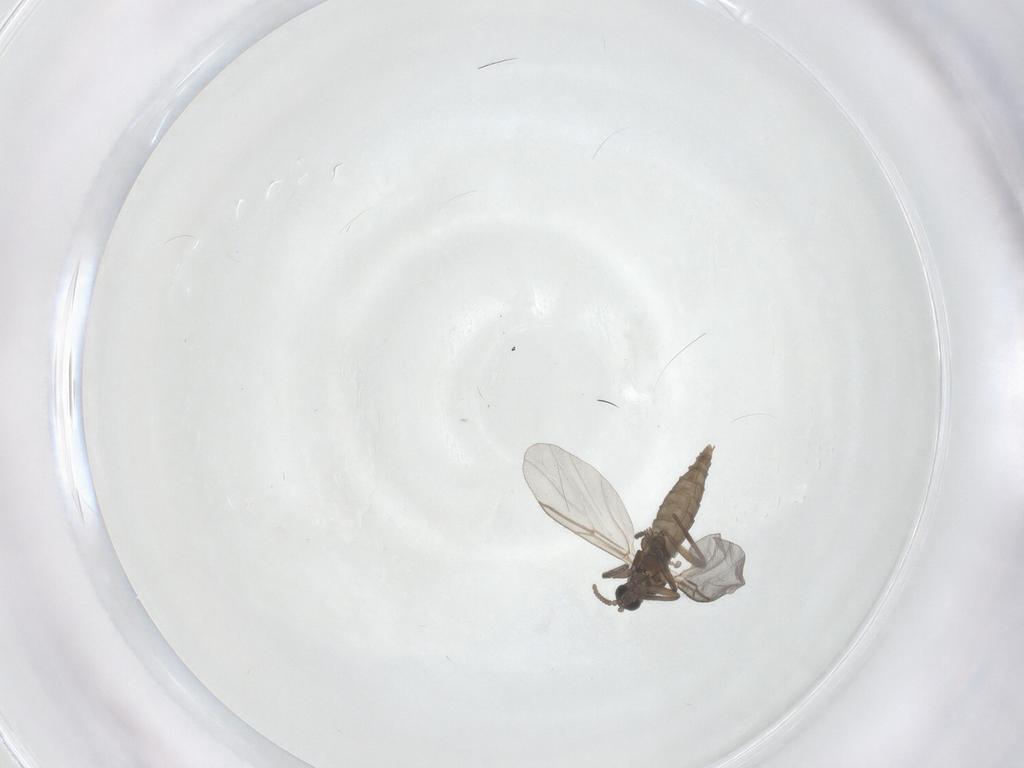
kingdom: Animalia
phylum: Arthropoda
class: Insecta
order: Diptera
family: Cecidomyiidae
